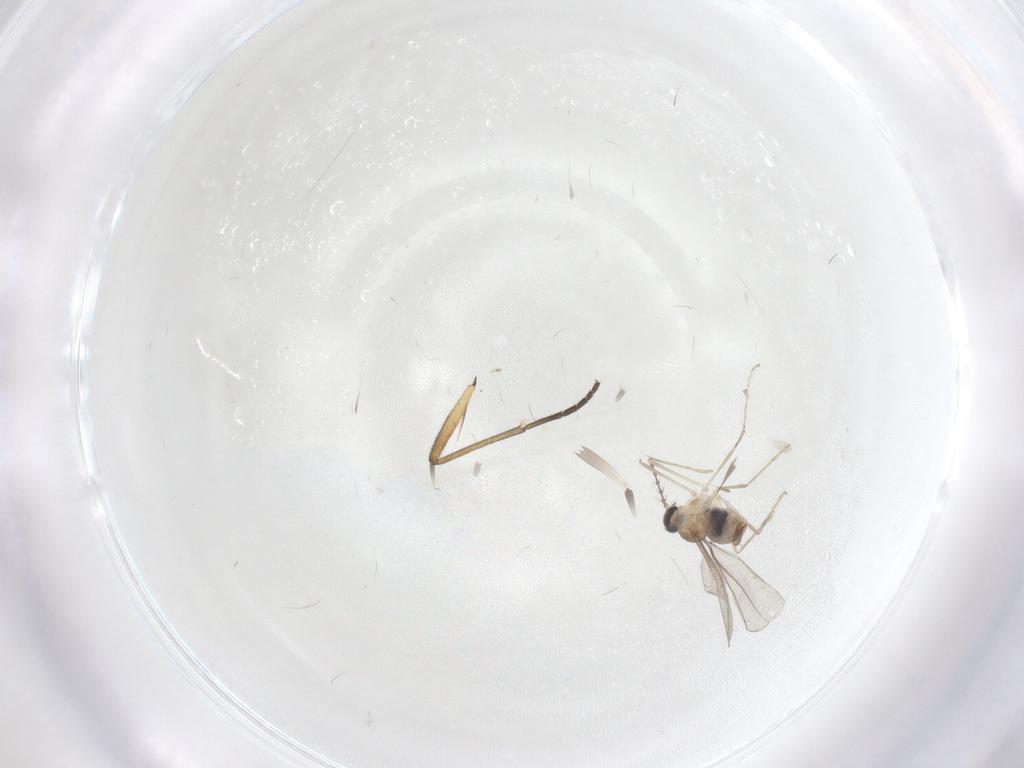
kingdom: Animalia
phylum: Arthropoda
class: Insecta
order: Diptera
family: Cecidomyiidae
